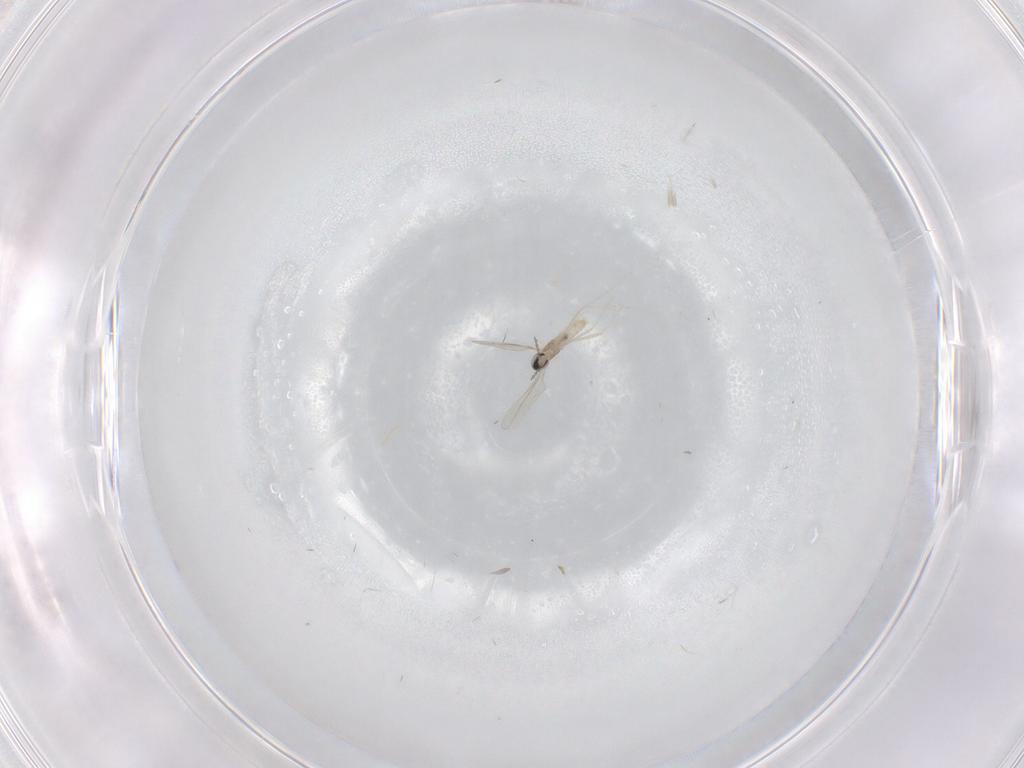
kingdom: Animalia
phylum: Arthropoda
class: Insecta
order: Diptera
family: Cecidomyiidae
